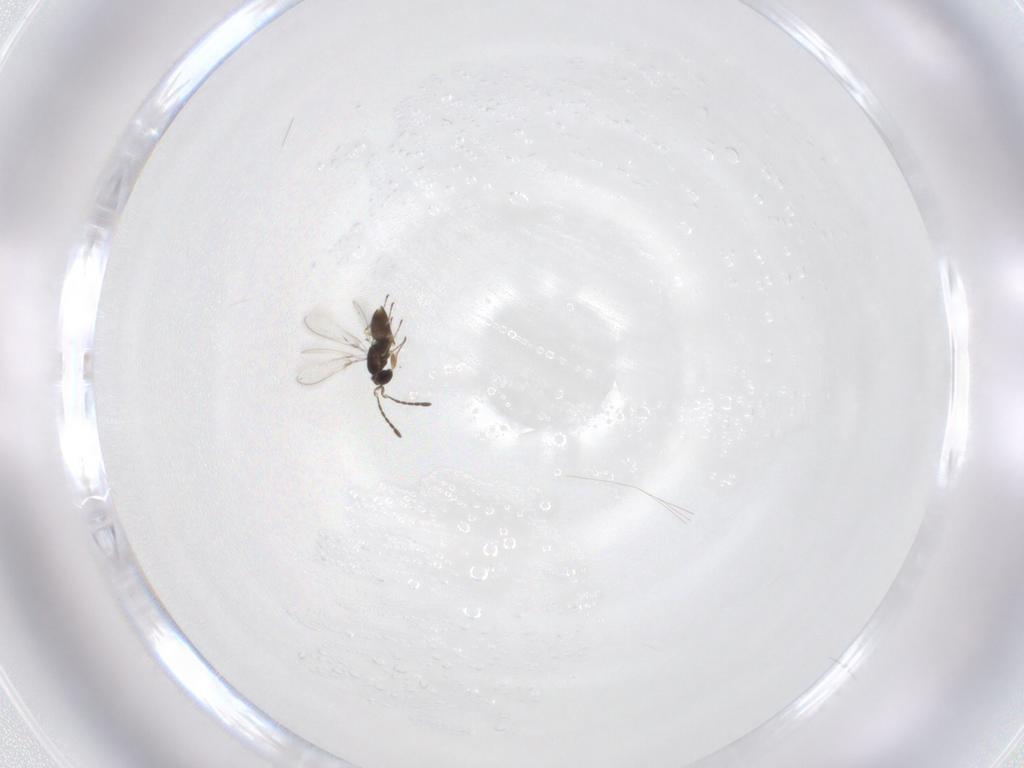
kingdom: Animalia
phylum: Arthropoda
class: Insecta
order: Hymenoptera
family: Mymaridae
